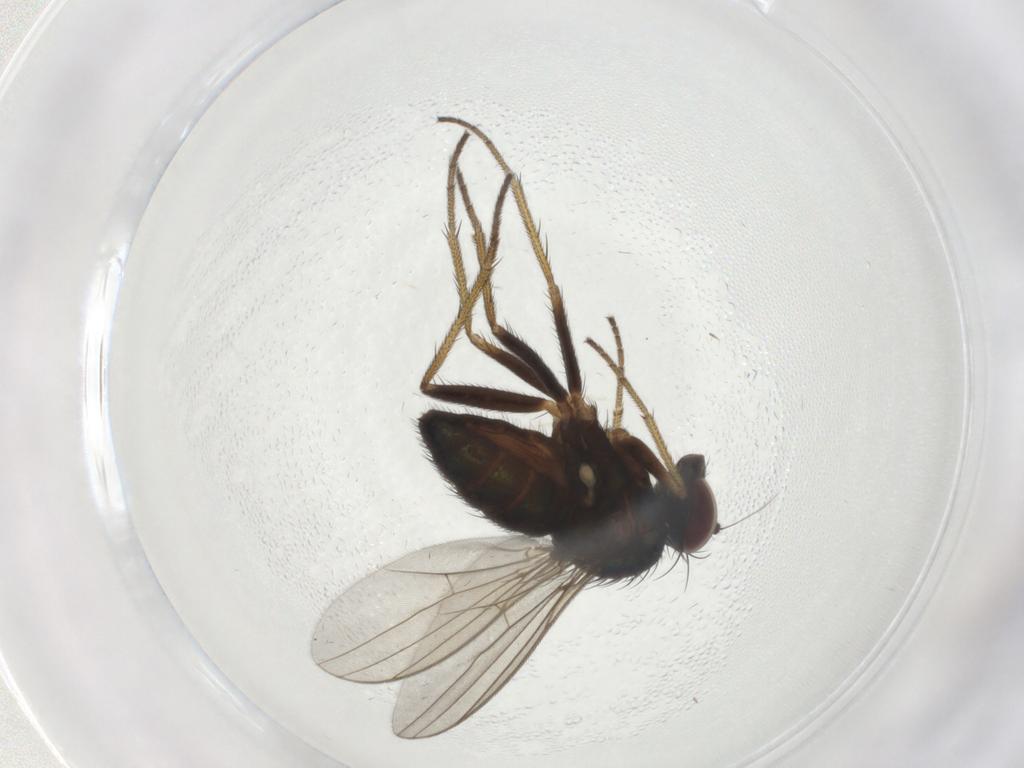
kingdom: Animalia
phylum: Arthropoda
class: Insecta
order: Diptera
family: Dolichopodidae
